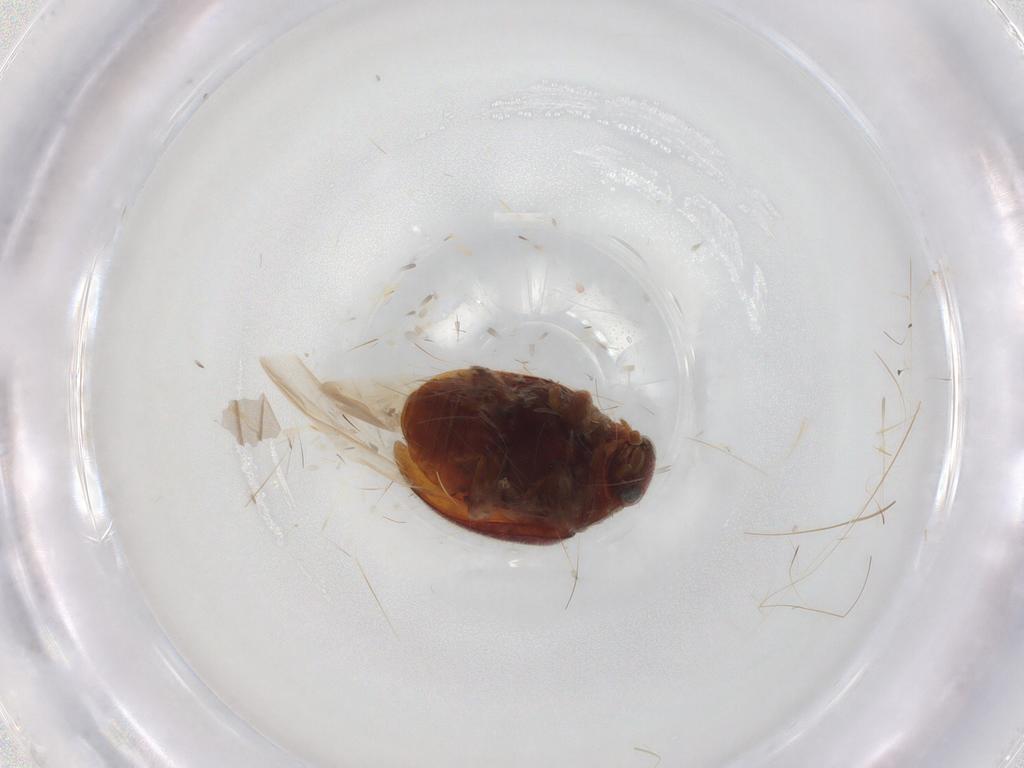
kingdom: Animalia
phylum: Arthropoda
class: Insecta
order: Coleoptera
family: Coccinellidae
